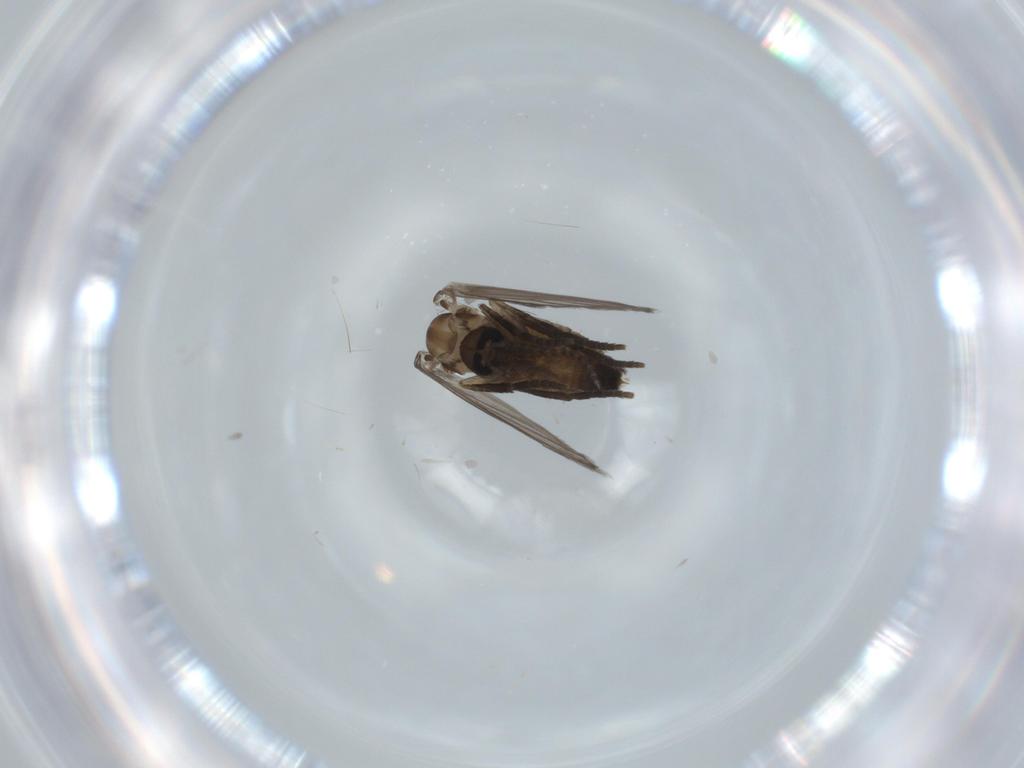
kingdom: Animalia
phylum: Arthropoda
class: Insecta
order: Diptera
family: Psychodidae
